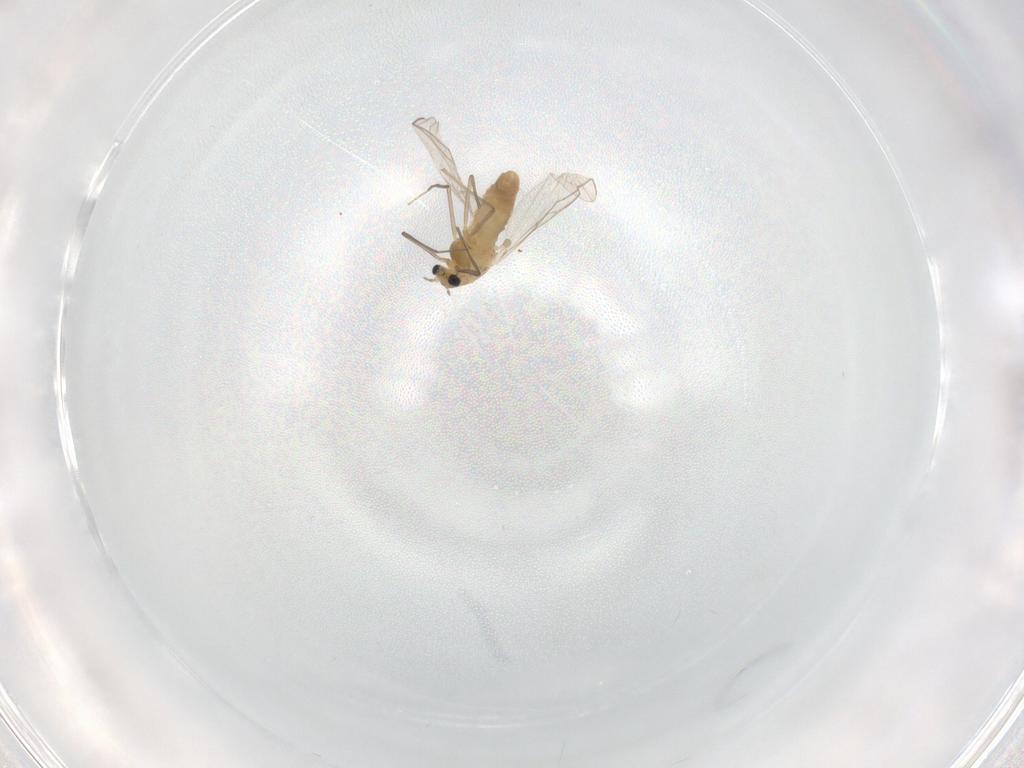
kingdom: Animalia
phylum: Arthropoda
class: Insecta
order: Diptera
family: Chironomidae
